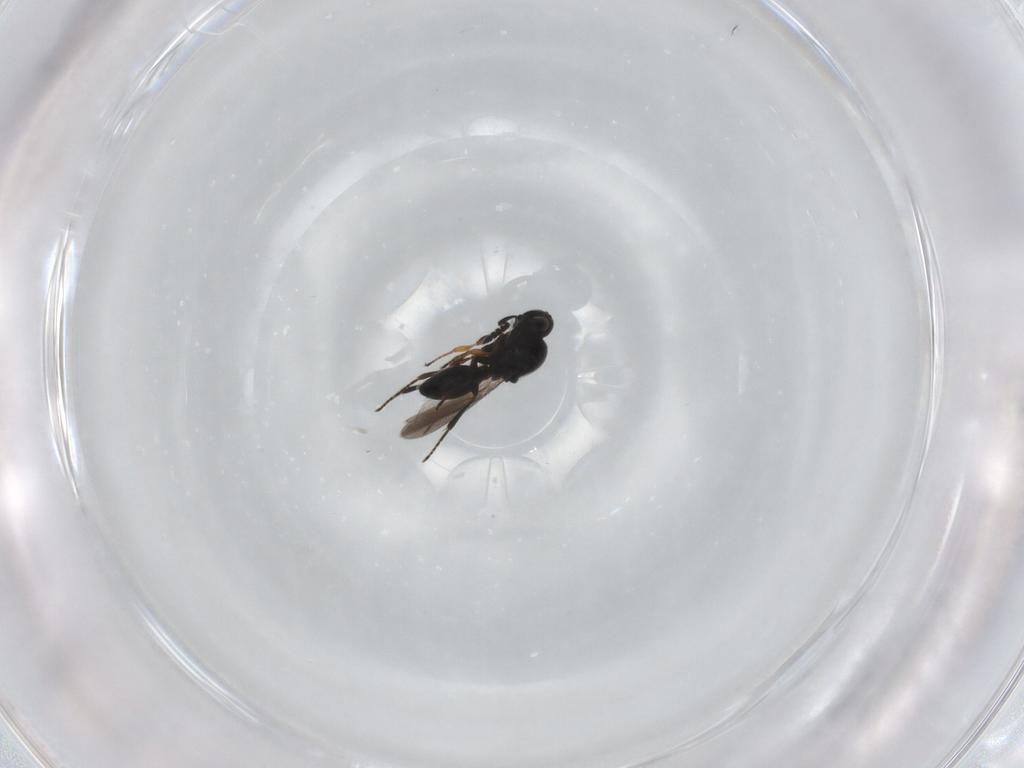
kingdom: Animalia
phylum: Arthropoda
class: Insecta
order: Hymenoptera
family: Platygastridae
